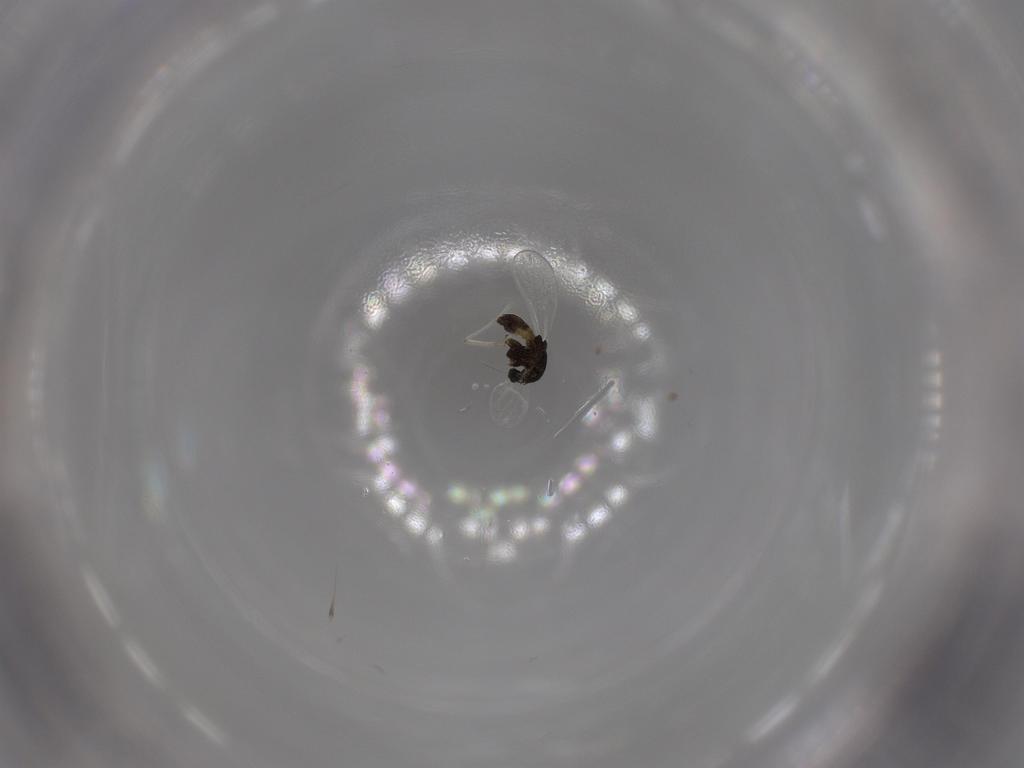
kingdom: Animalia
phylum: Arthropoda
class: Insecta
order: Diptera
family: Chironomidae
